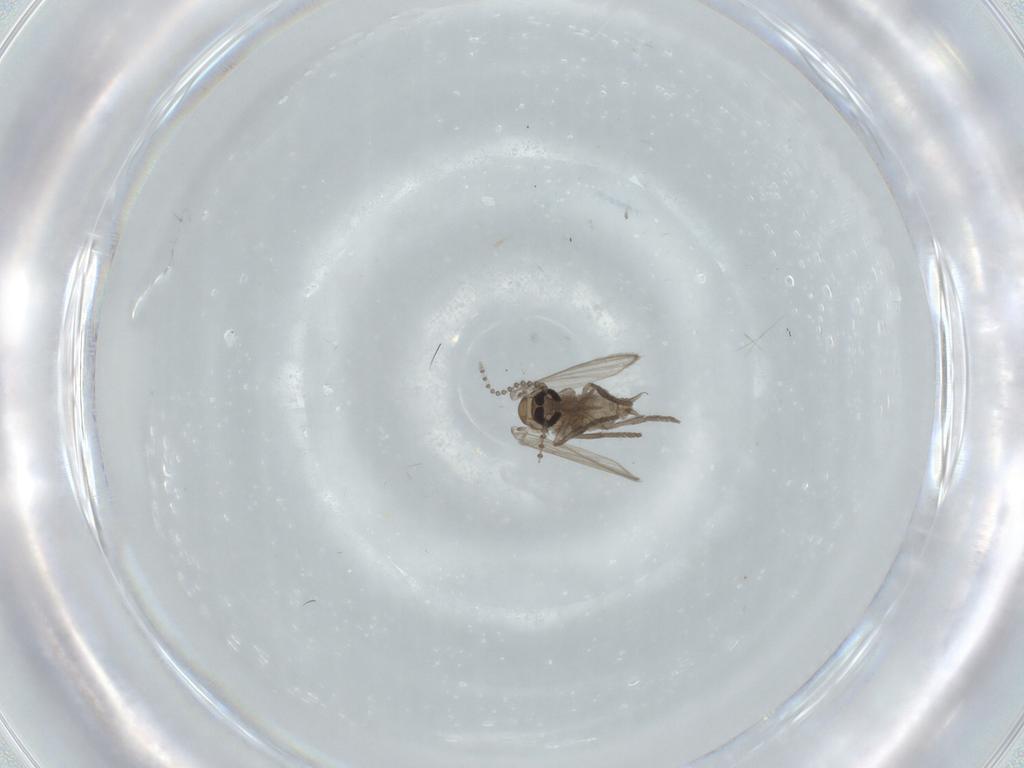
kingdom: Animalia
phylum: Arthropoda
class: Insecta
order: Diptera
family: Psychodidae
